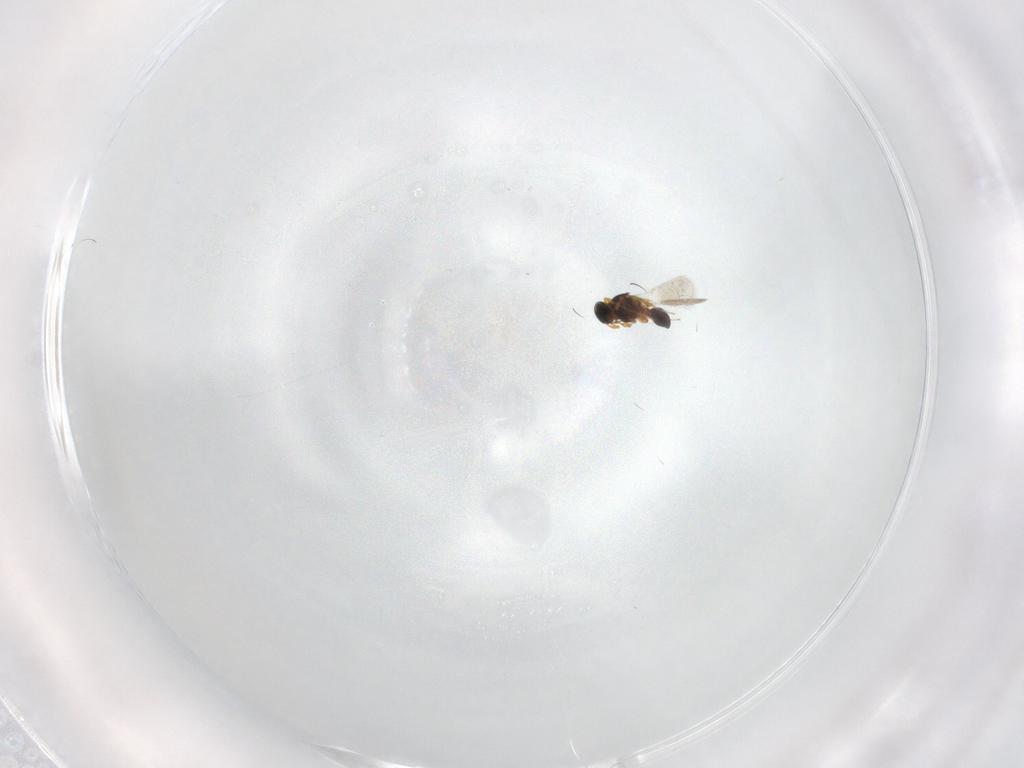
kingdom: Animalia
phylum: Arthropoda
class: Insecta
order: Hymenoptera
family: Platygastridae
